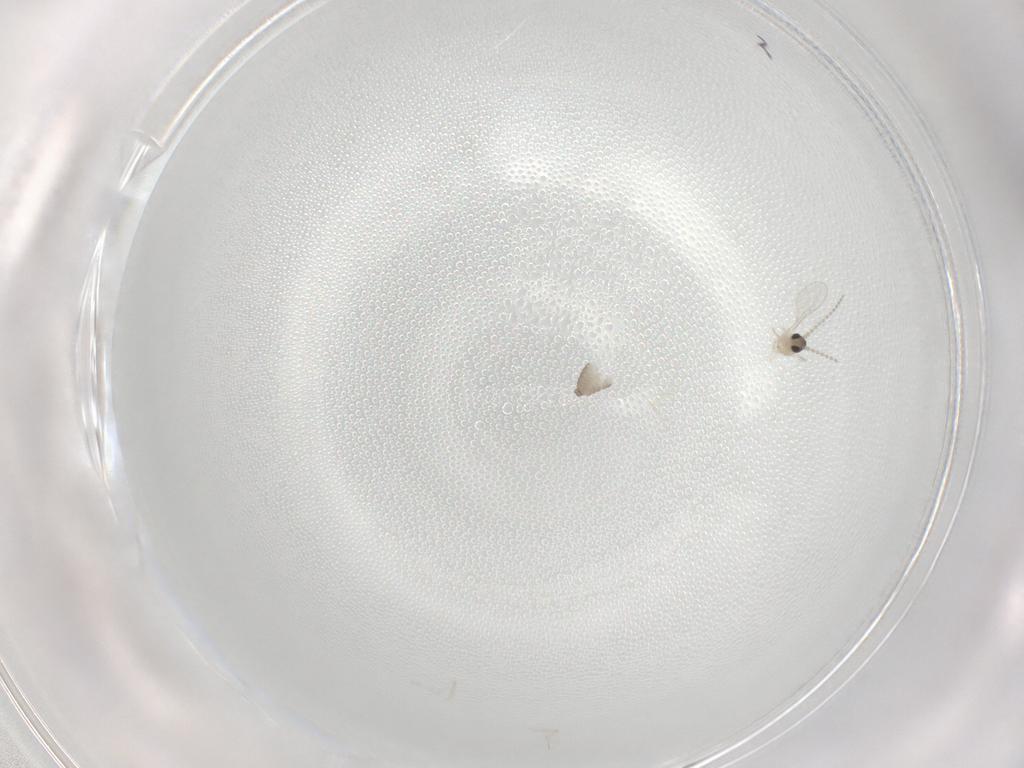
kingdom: Animalia
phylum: Arthropoda
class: Insecta
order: Diptera
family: Cecidomyiidae
